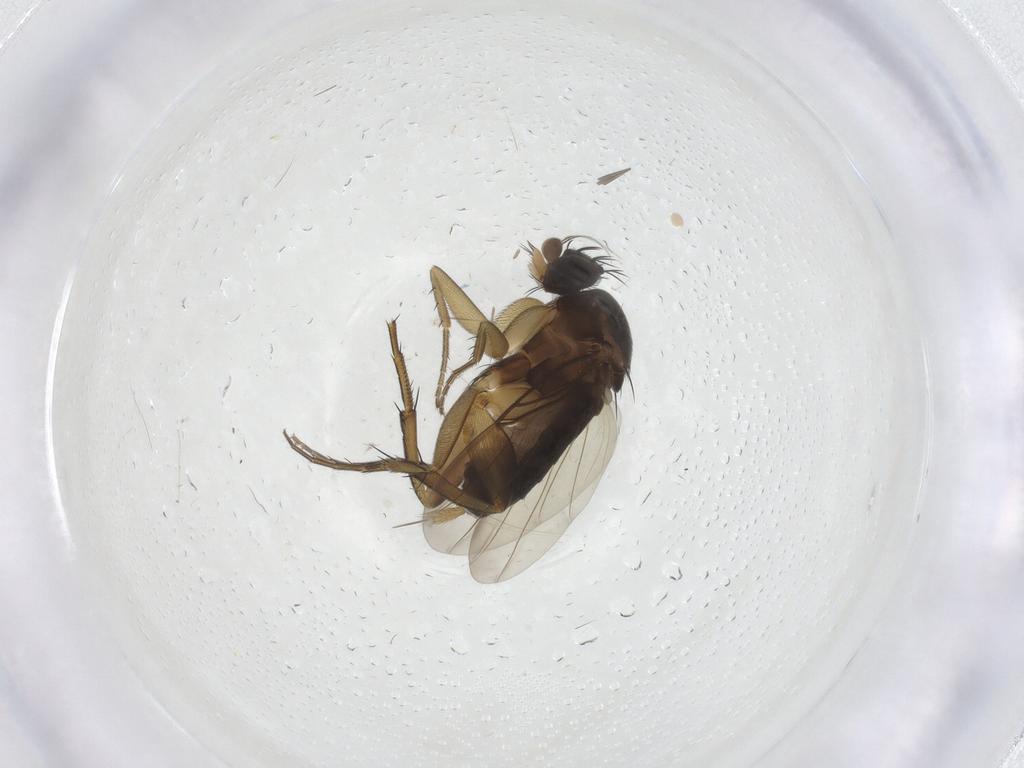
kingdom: Animalia
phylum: Arthropoda
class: Insecta
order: Diptera
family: Phoridae
